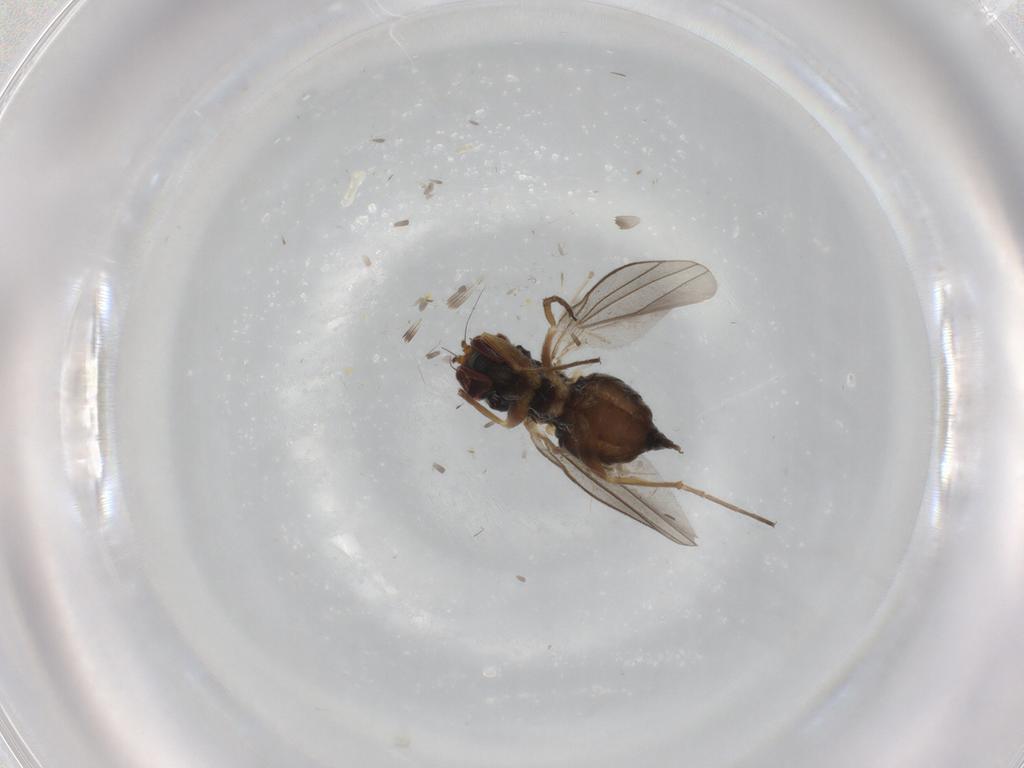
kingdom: Animalia
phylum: Arthropoda
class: Insecta
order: Diptera
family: Dolichopodidae
